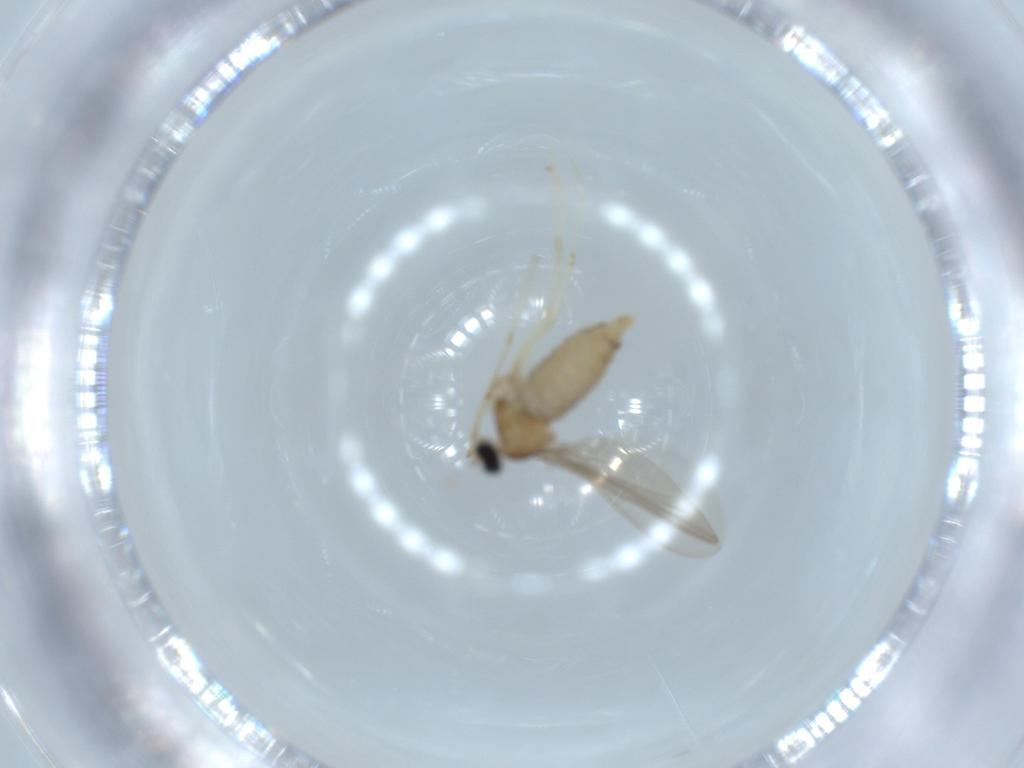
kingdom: Animalia
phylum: Arthropoda
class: Insecta
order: Diptera
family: Cecidomyiidae
